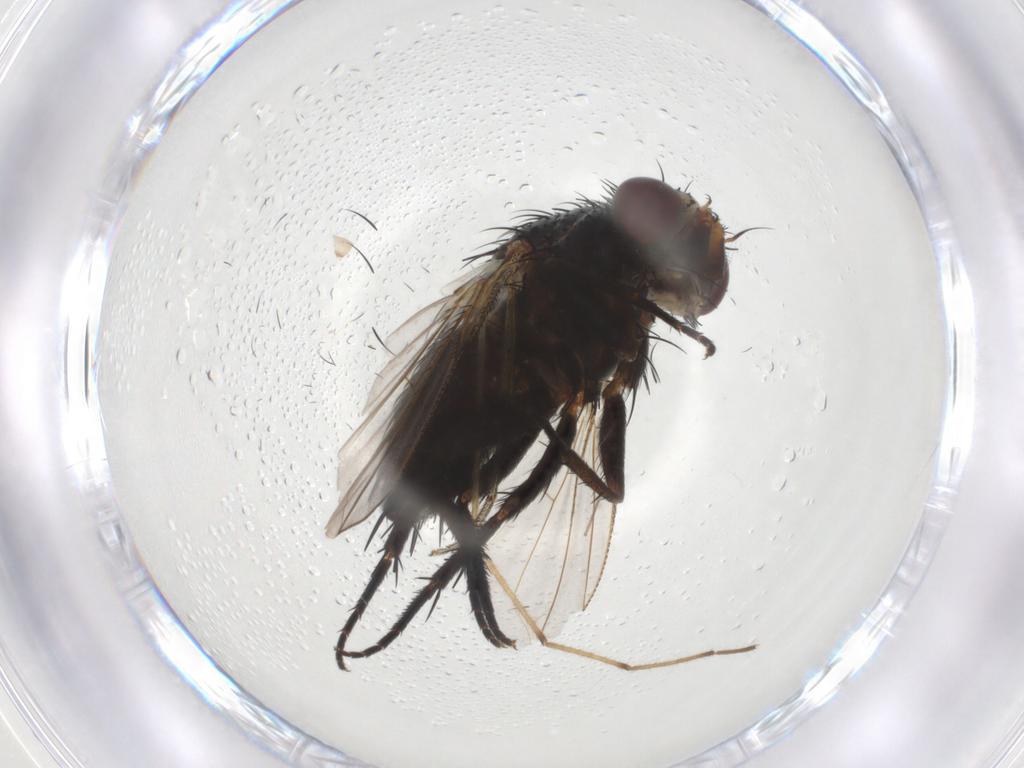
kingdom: Animalia
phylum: Arthropoda
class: Insecta
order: Diptera
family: Tachinidae
